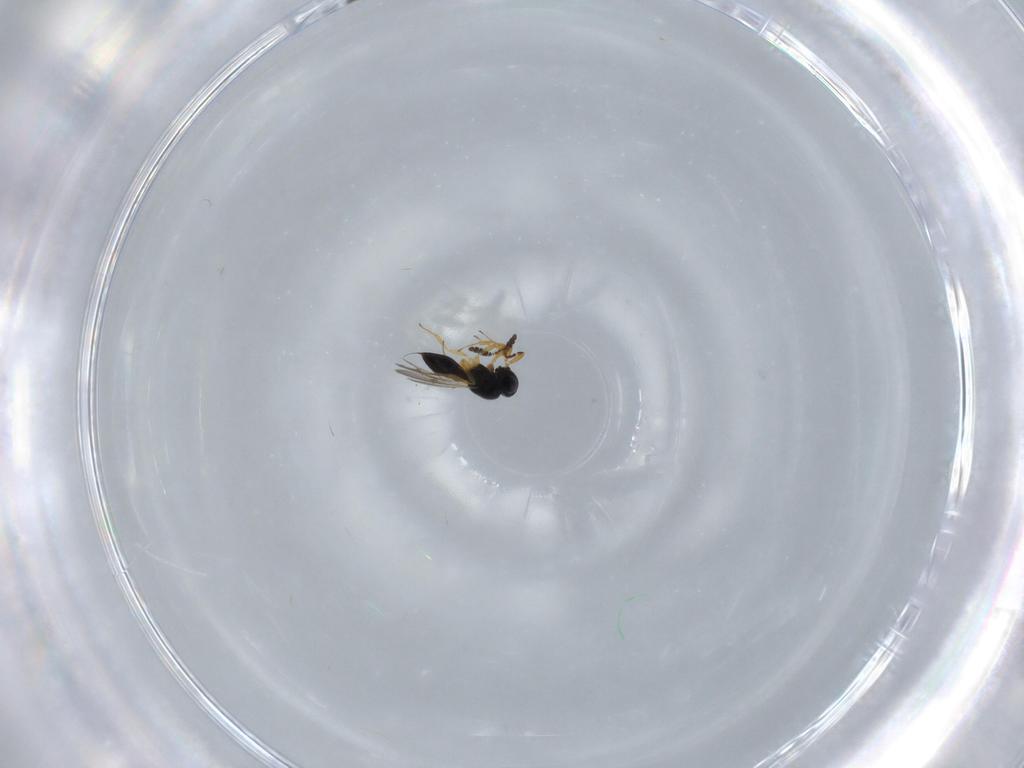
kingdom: Animalia
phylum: Arthropoda
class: Insecta
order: Hymenoptera
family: Scelionidae
